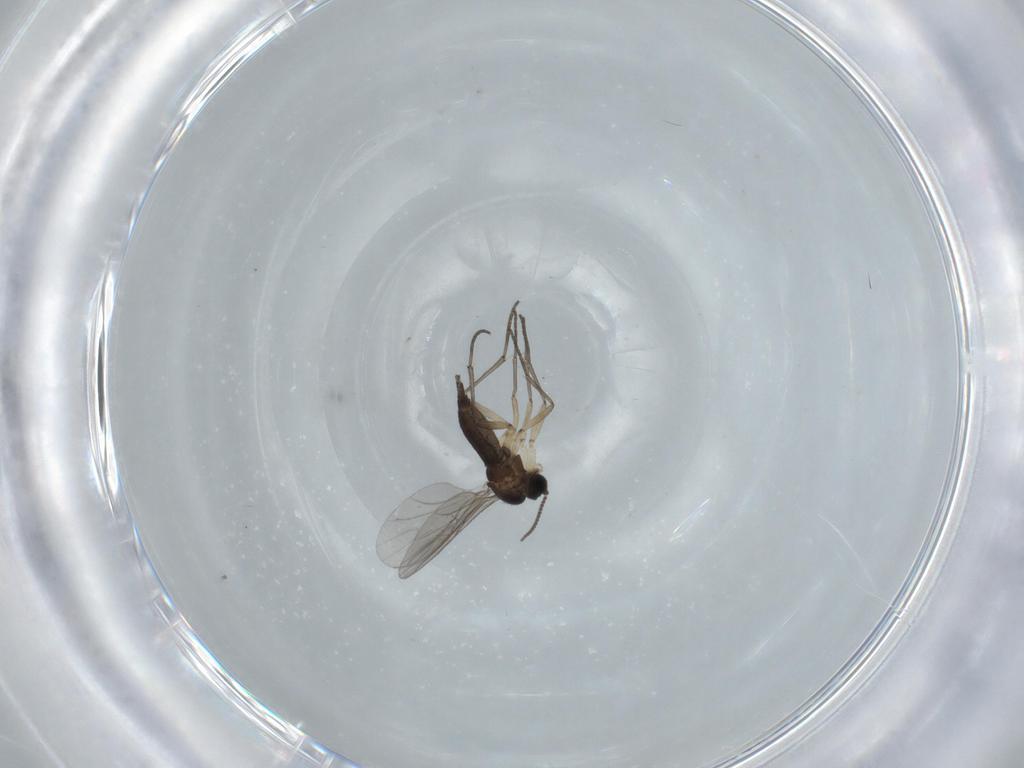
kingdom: Animalia
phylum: Arthropoda
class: Insecta
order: Diptera
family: Sciaridae
